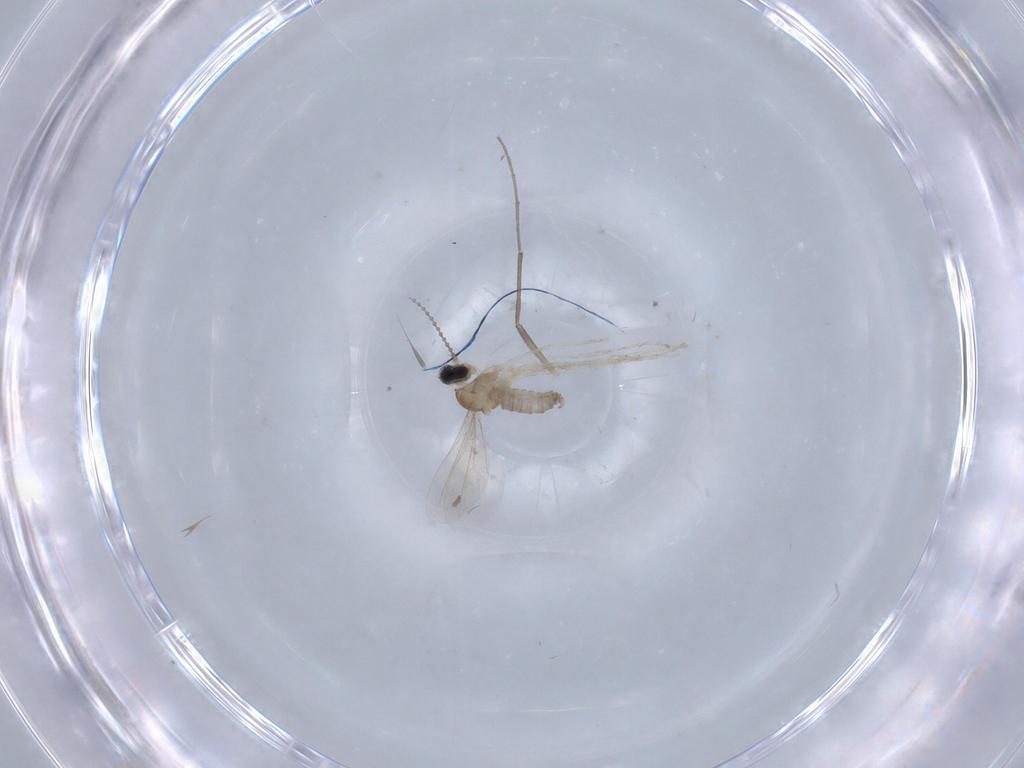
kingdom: Animalia
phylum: Arthropoda
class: Insecta
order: Diptera
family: Cecidomyiidae
